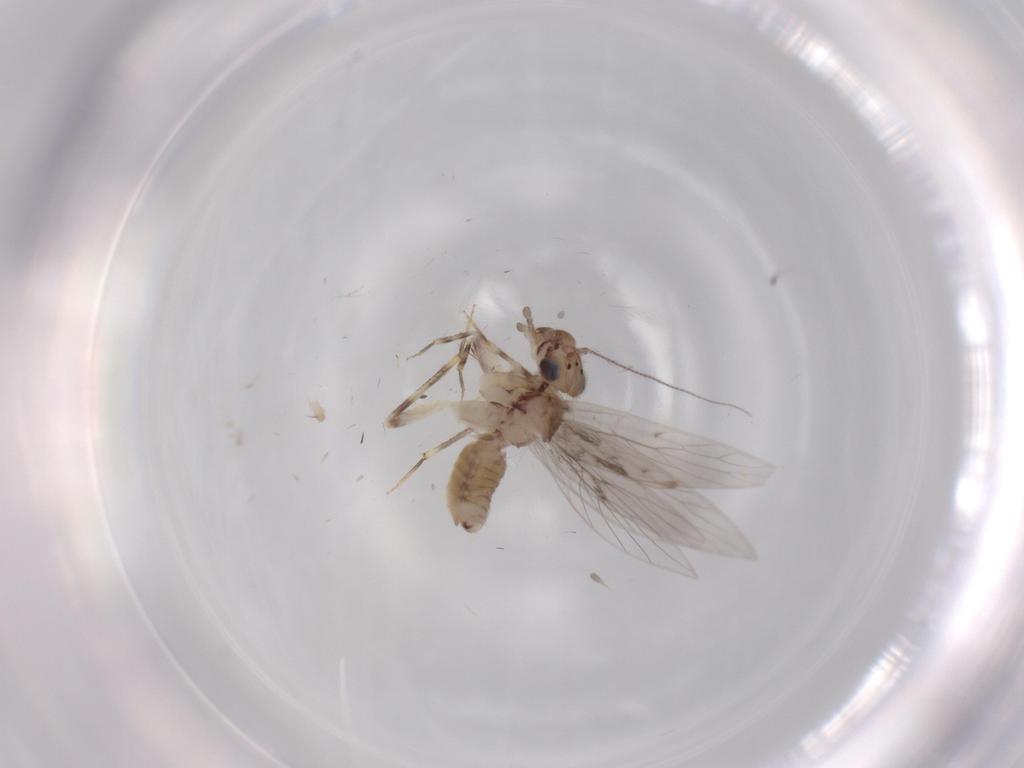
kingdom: Animalia
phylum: Arthropoda
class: Insecta
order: Psocodea
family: Lepidopsocidae
